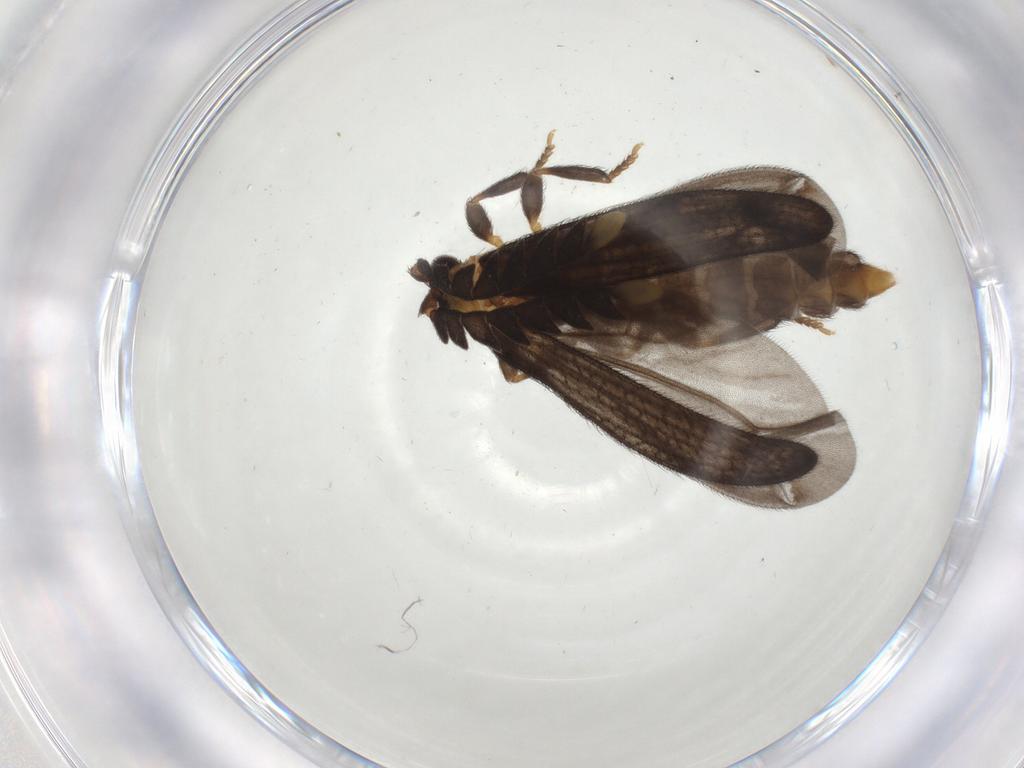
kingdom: Animalia
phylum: Arthropoda
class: Insecta
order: Coleoptera
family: Lycidae
